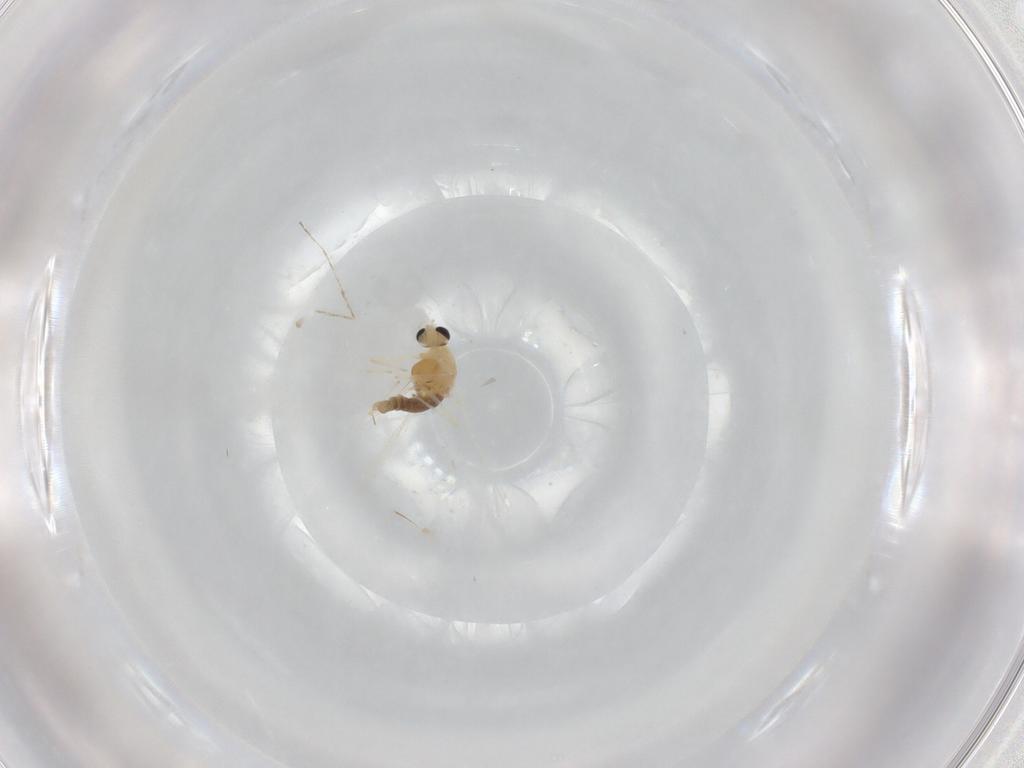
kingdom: Animalia
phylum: Arthropoda
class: Insecta
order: Diptera
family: Chironomidae
